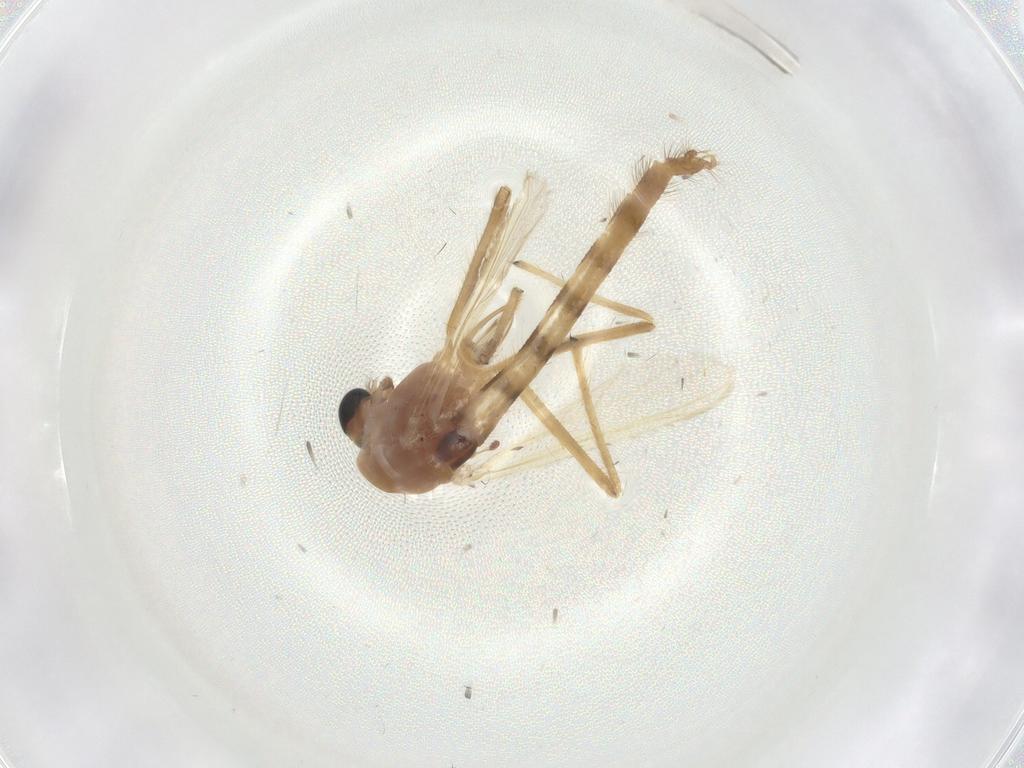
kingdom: Animalia
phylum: Arthropoda
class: Insecta
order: Diptera
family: Chironomidae
